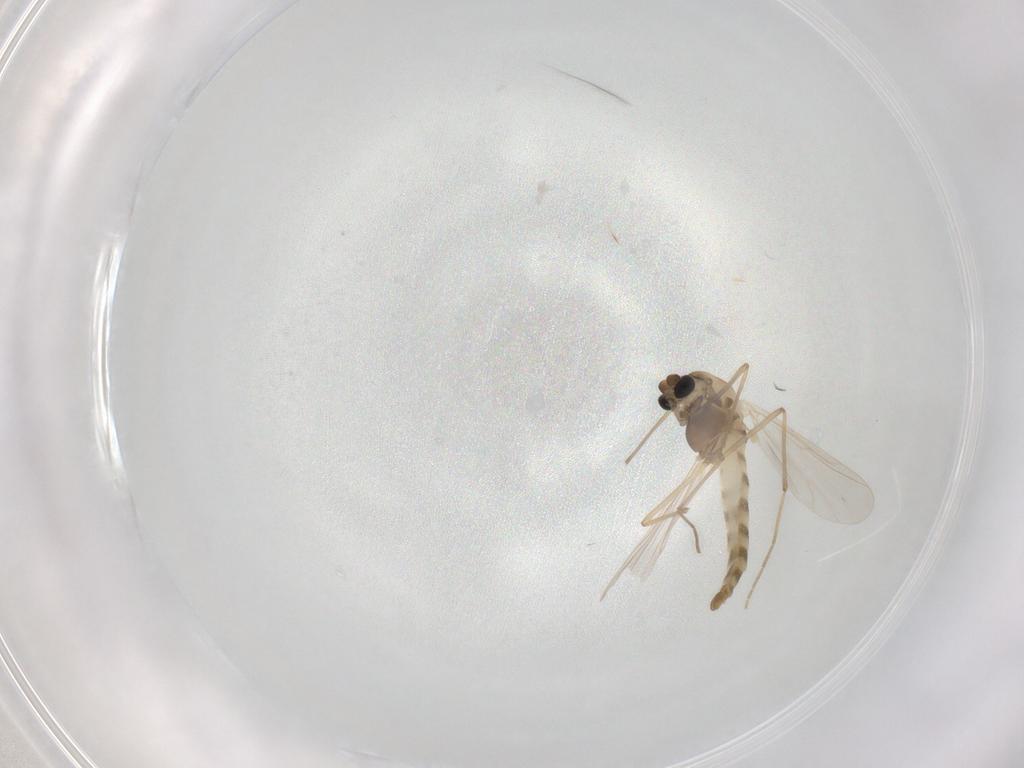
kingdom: Animalia
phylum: Arthropoda
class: Insecta
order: Diptera
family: Chironomidae
